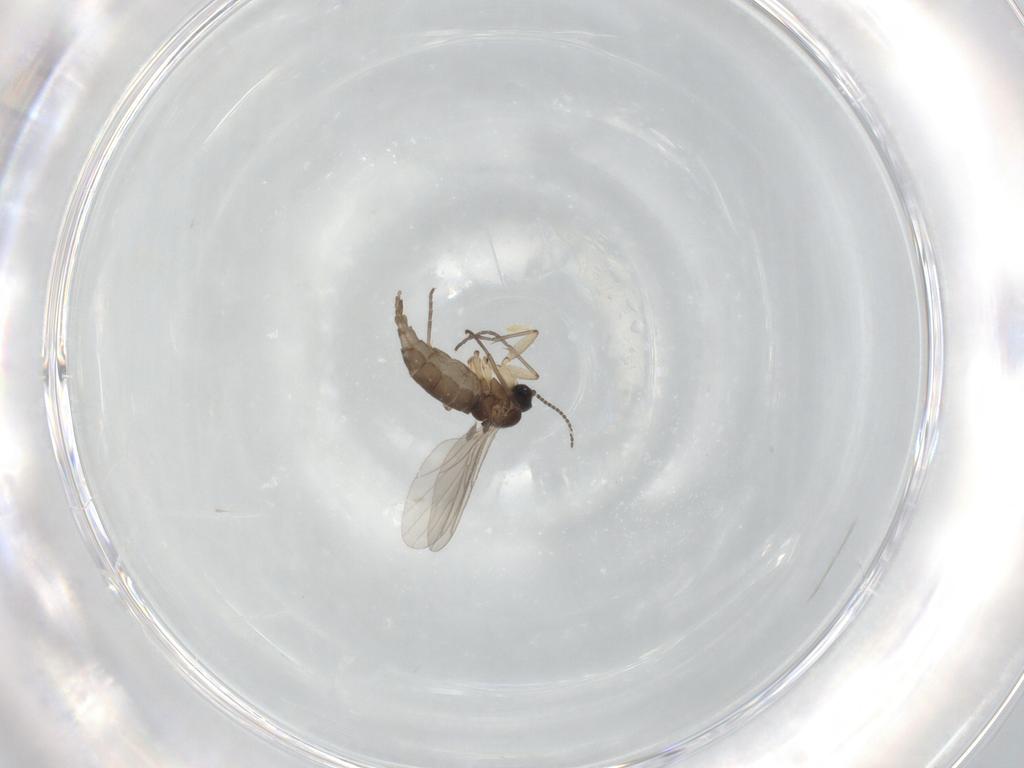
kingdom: Animalia
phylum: Arthropoda
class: Insecta
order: Diptera
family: Sciaridae
